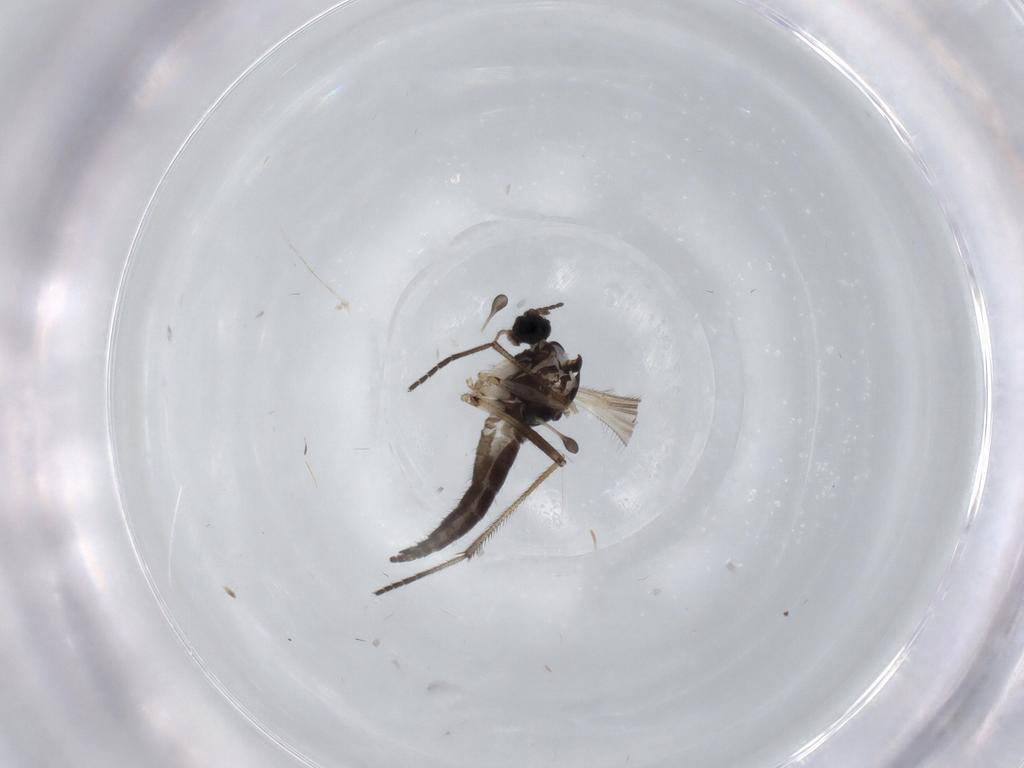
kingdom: Animalia
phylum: Arthropoda
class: Insecta
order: Diptera
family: Sciaridae
